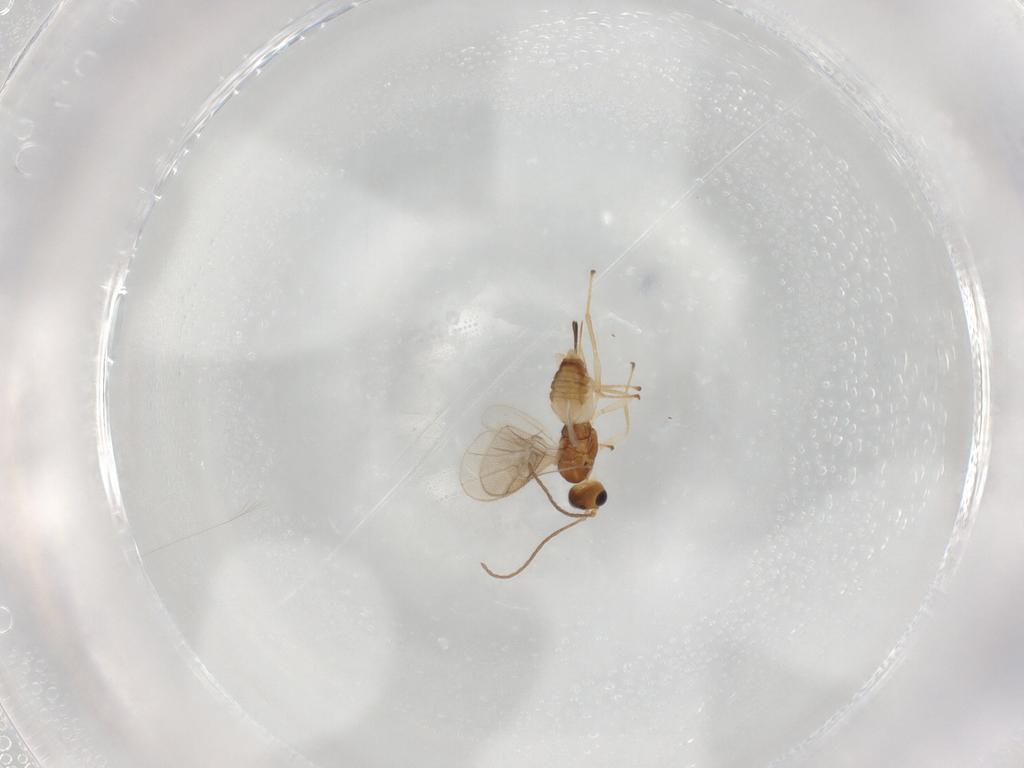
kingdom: Animalia
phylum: Arthropoda
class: Insecta
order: Hymenoptera
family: Braconidae
